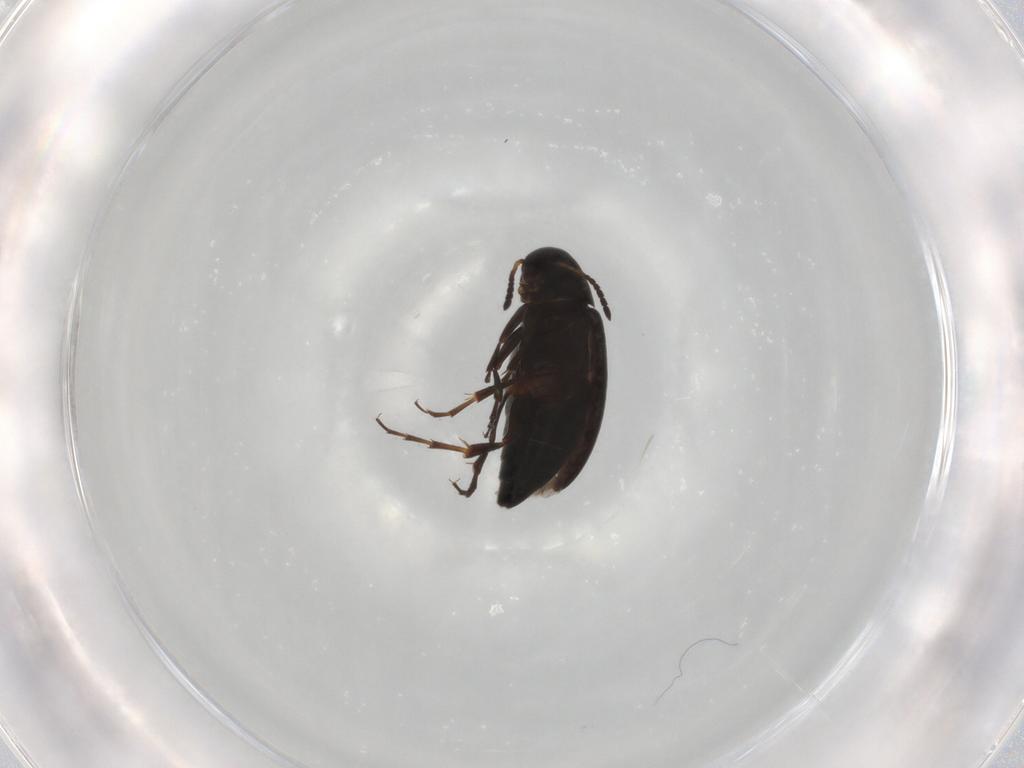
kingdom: Animalia
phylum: Arthropoda
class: Insecta
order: Coleoptera
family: Scraptiidae
